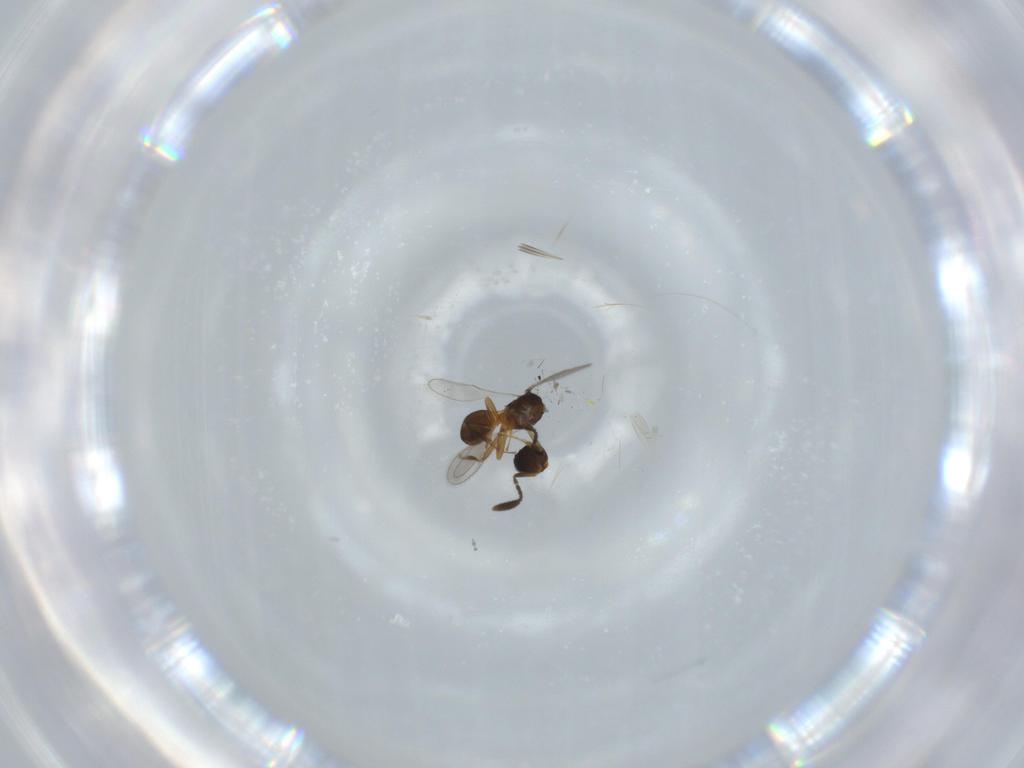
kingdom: Animalia
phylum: Arthropoda
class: Insecta
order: Hymenoptera
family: Scelionidae
